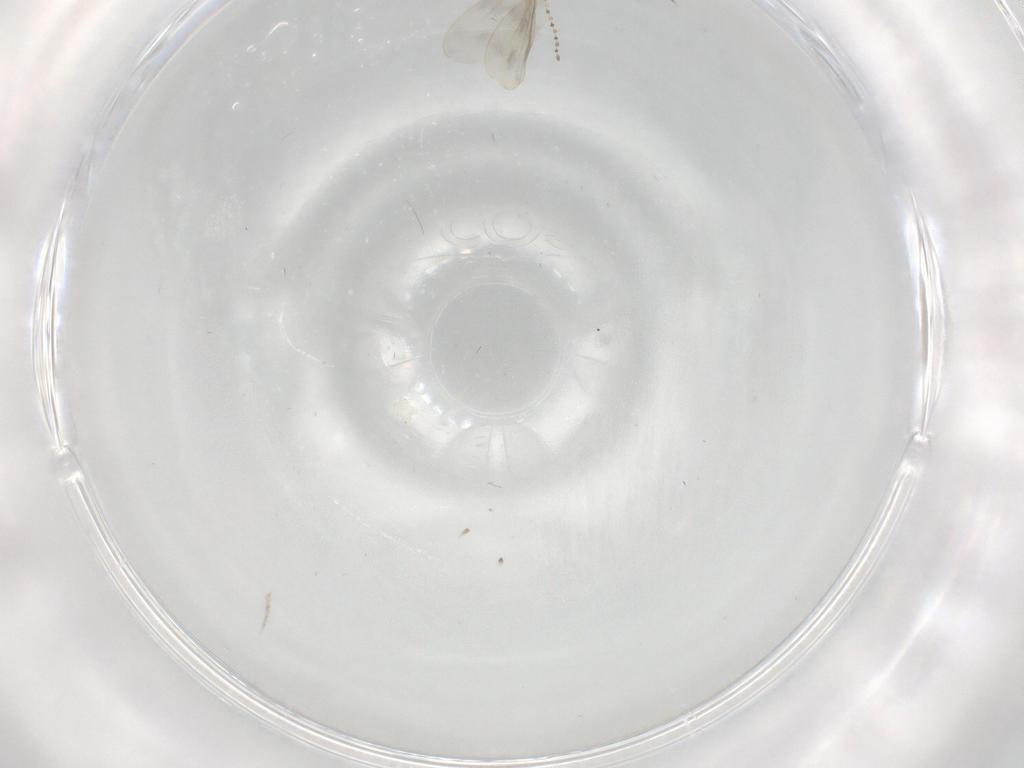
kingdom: Animalia
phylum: Arthropoda
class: Insecta
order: Diptera
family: Cecidomyiidae
